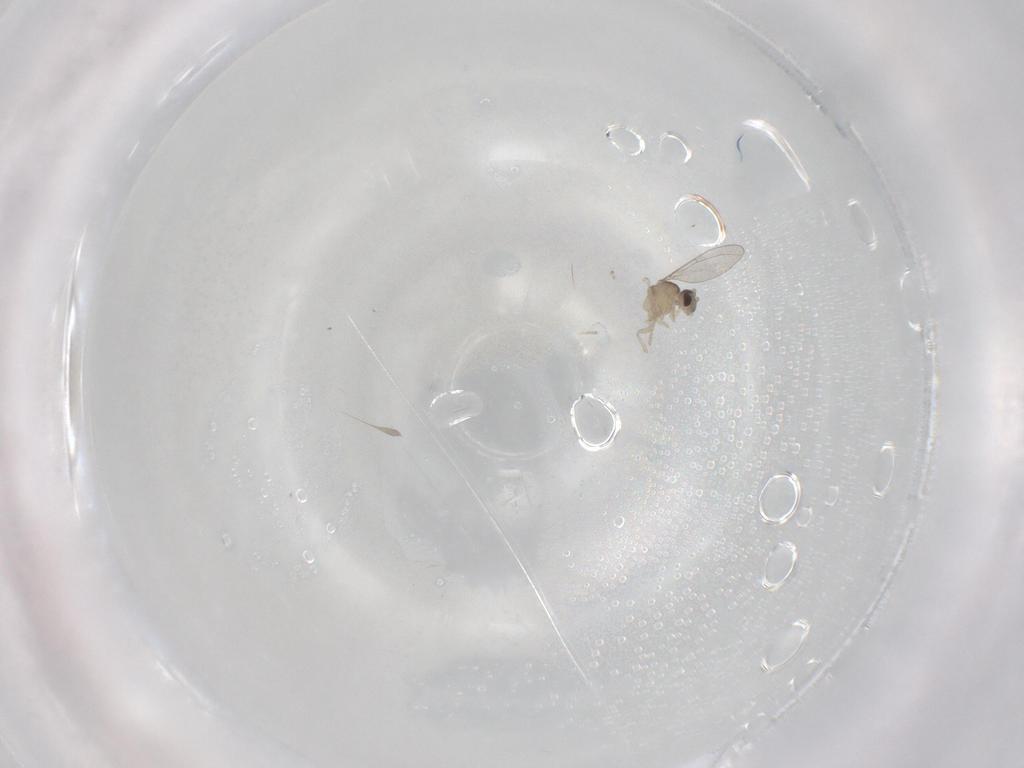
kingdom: Animalia
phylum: Arthropoda
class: Insecta
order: Diptera
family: Cecidomyiidae
